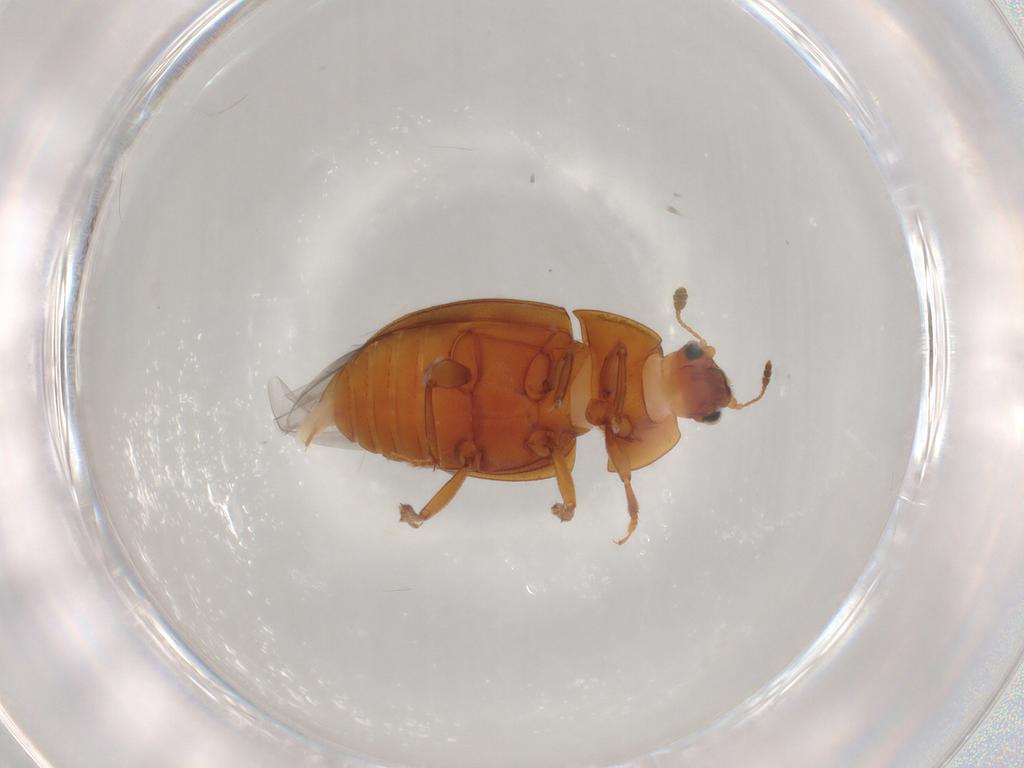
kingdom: Animalia
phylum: Arthropoda
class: Insecta
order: Coleoptera
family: Nitidulidae
